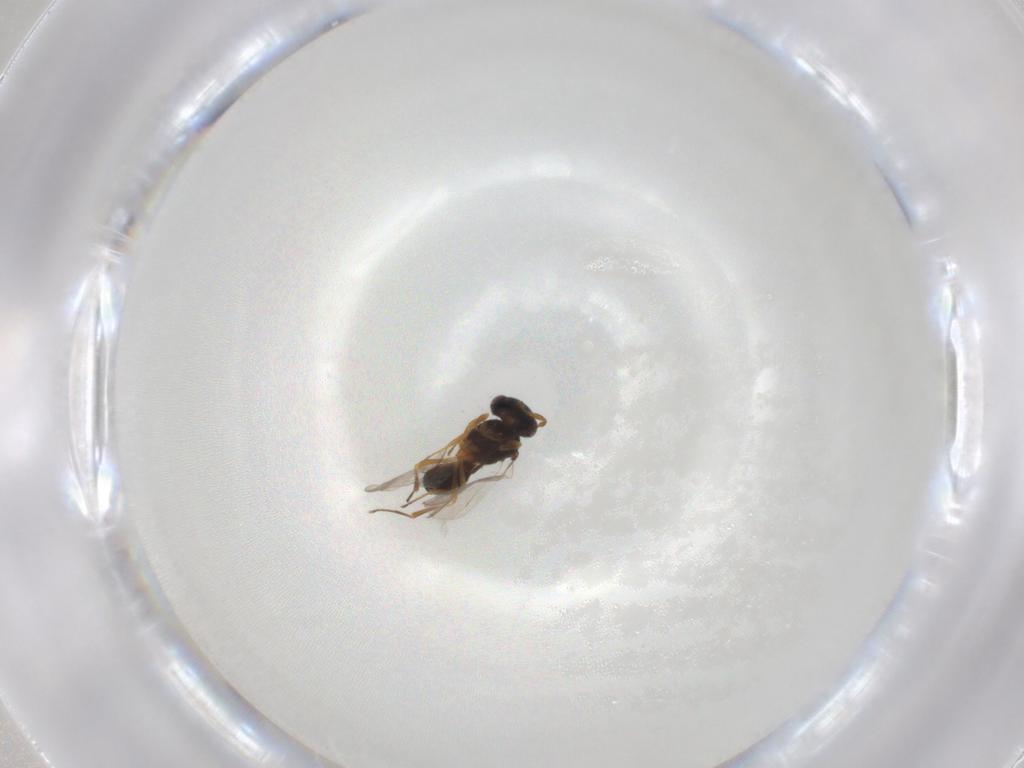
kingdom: Animalia
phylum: Arthropoda
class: Insecta
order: Hymenoptera
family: Scelionidae
